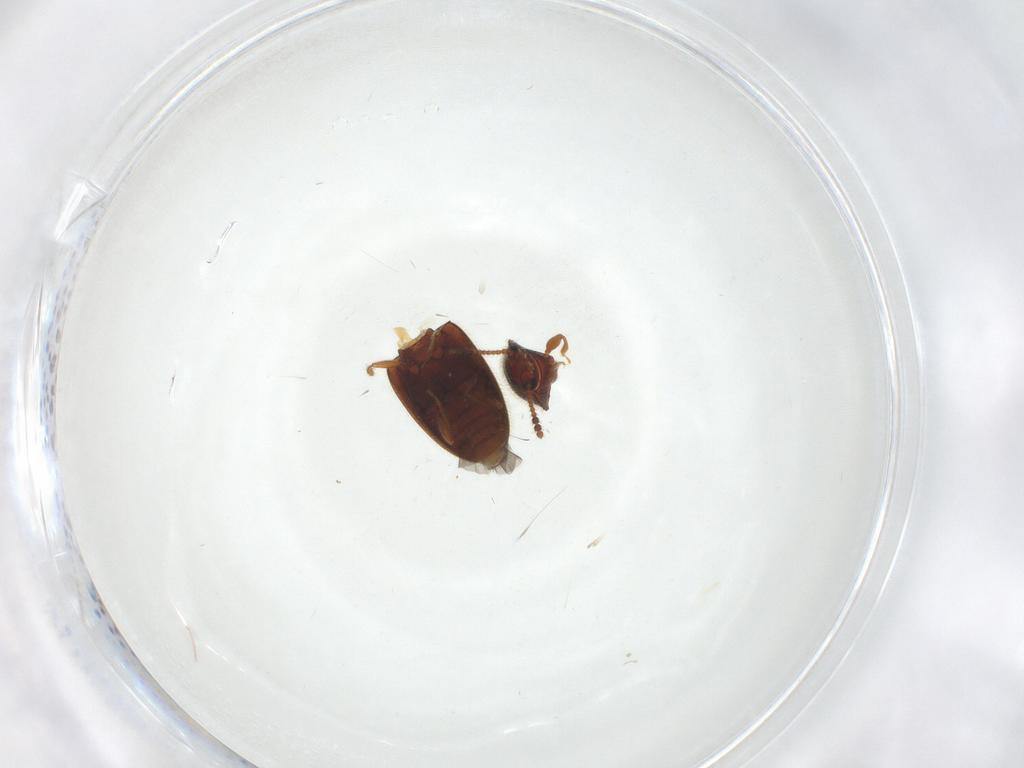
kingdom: Animalia
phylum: Arthropoda
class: Insecta
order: Coleoptera
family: Erotylidae
